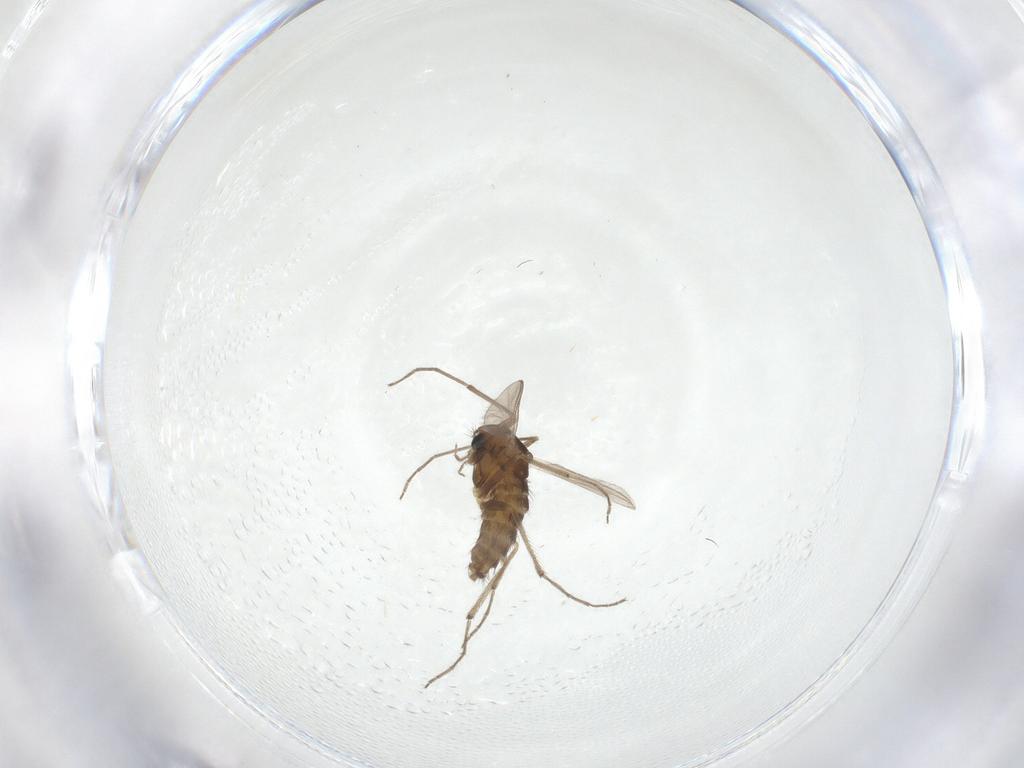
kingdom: Animalia
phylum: Arthropoda
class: Insecta
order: Diptera
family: Chironomidae
